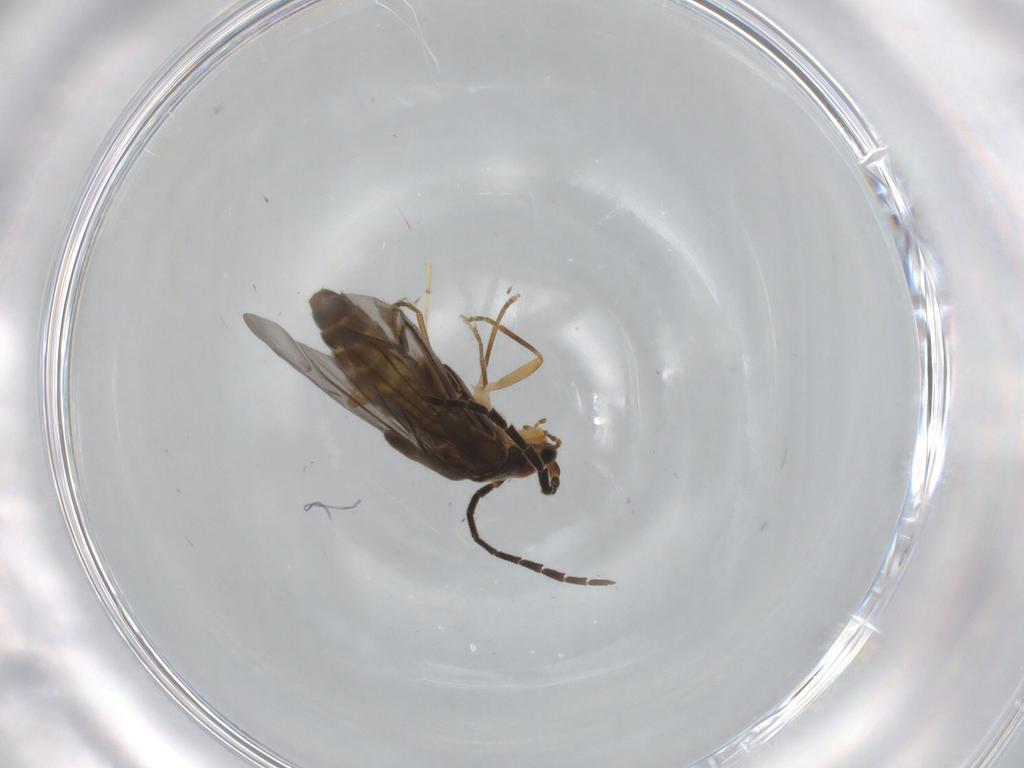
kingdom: Animalia
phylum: Arthropoda
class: Insecta
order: Coleoptera
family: Cantharidae
